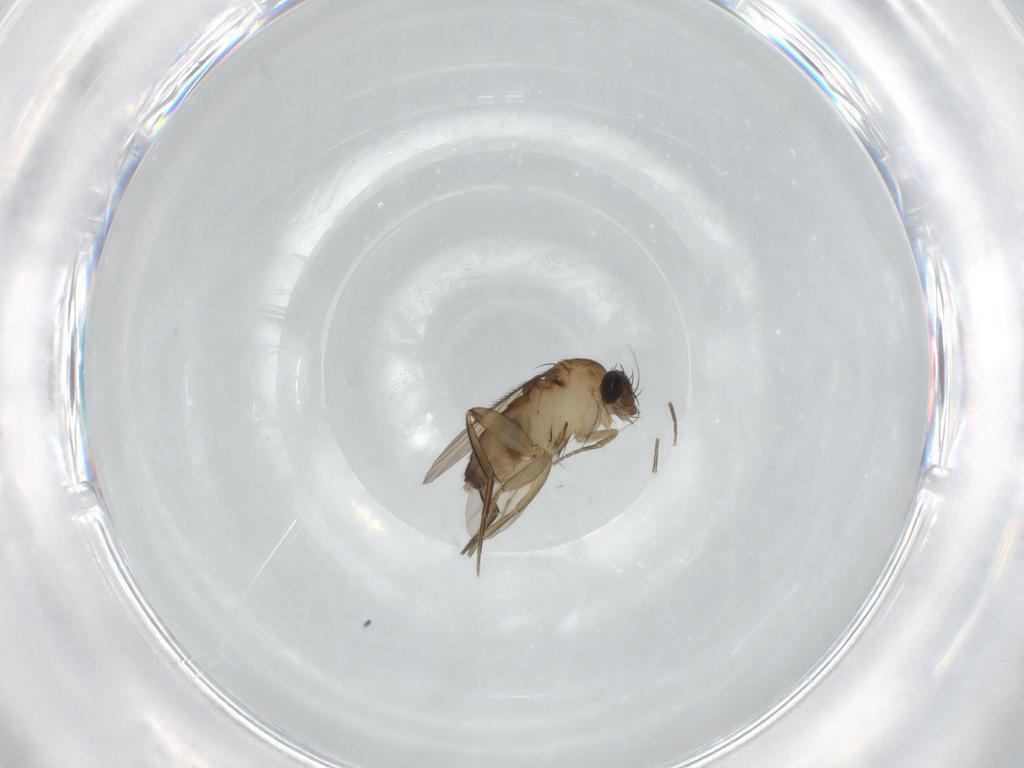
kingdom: Animalia
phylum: Arthropoda
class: Insecta
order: Diptera
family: Phoridae
